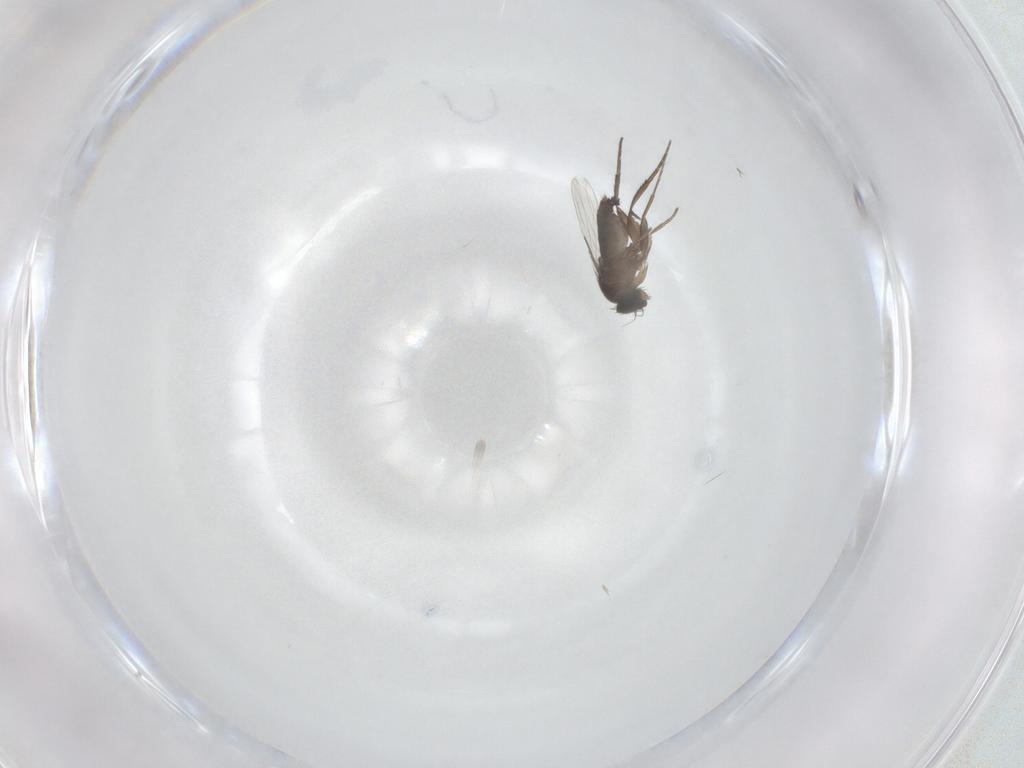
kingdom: Animalia
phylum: Arthropoda
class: Insecta
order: Diptera
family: Phoridae
